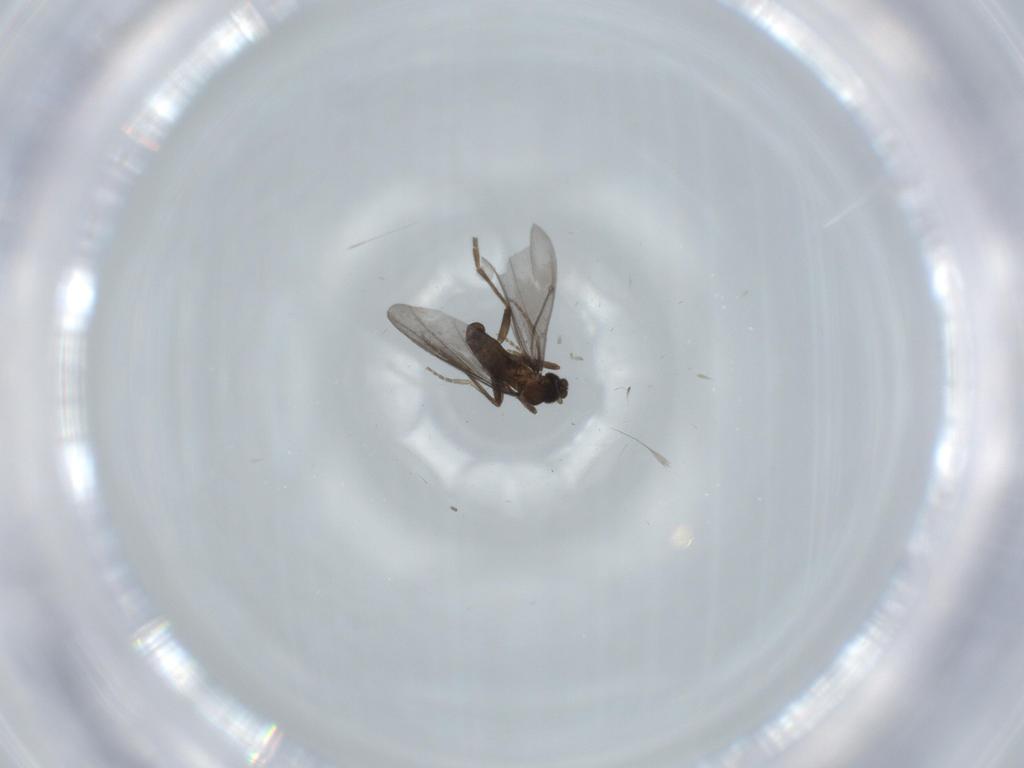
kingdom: Animalia
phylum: Arthropoda
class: Insecta
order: Diptera
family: Phoridae
